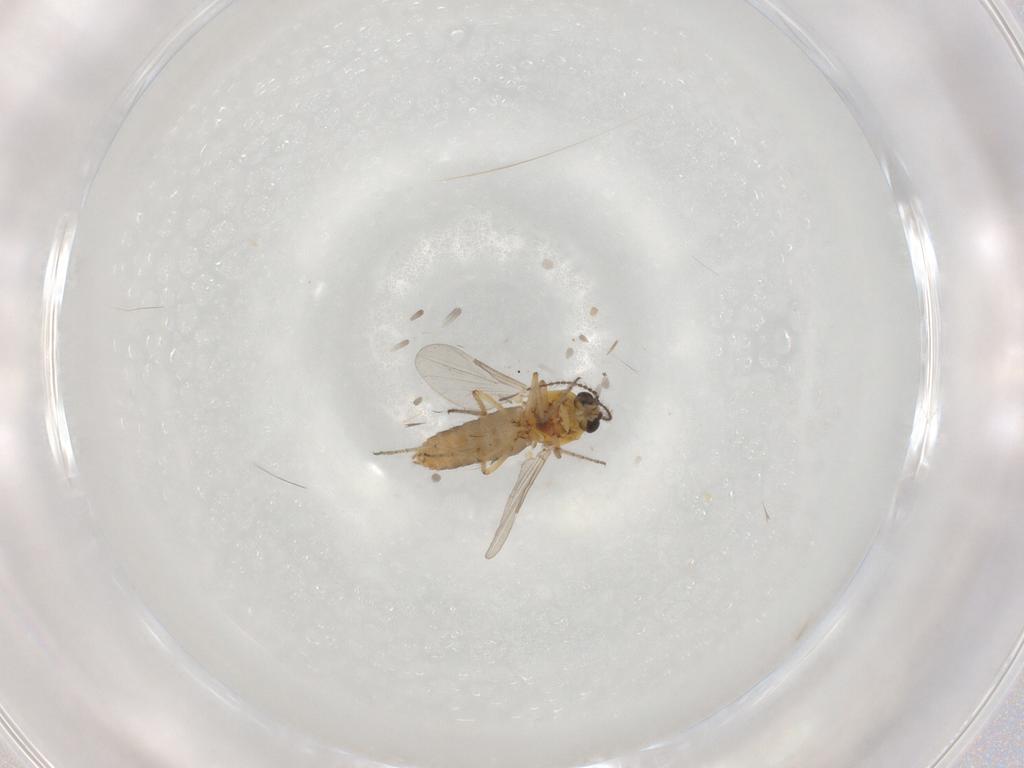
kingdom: Animalia
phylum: Arthropoda
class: Insecta
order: Diptera
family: Ceratopogonidae
